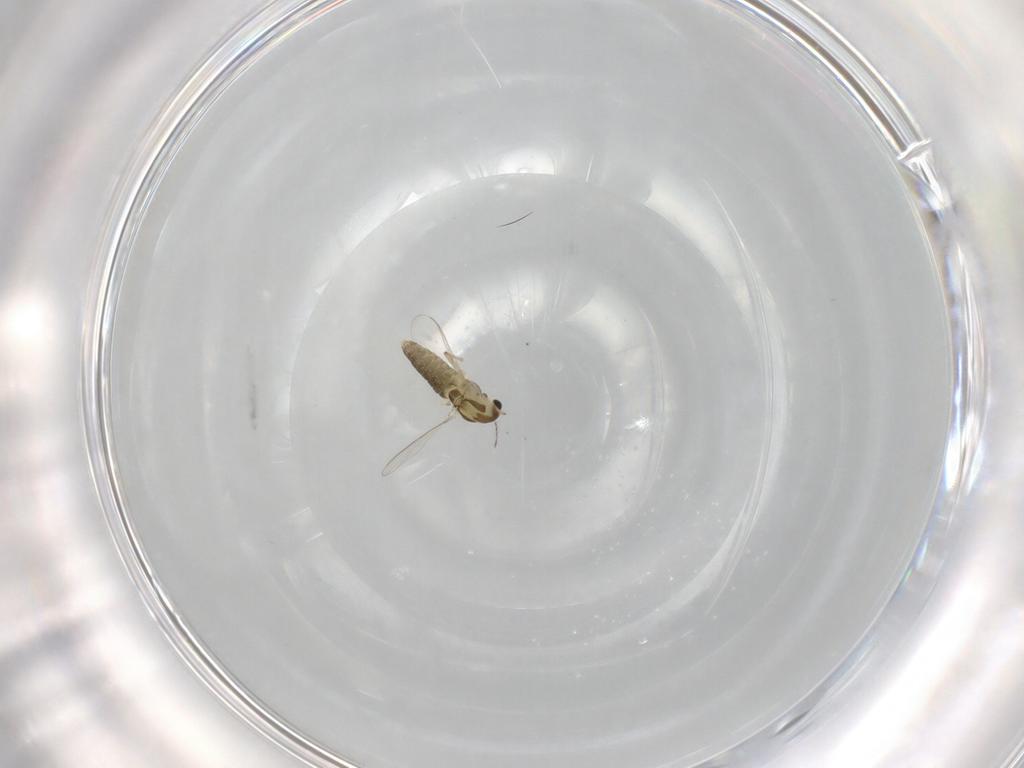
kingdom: Animalia
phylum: Arthropoda
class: Insecta
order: Diptera
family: Chironomidae
